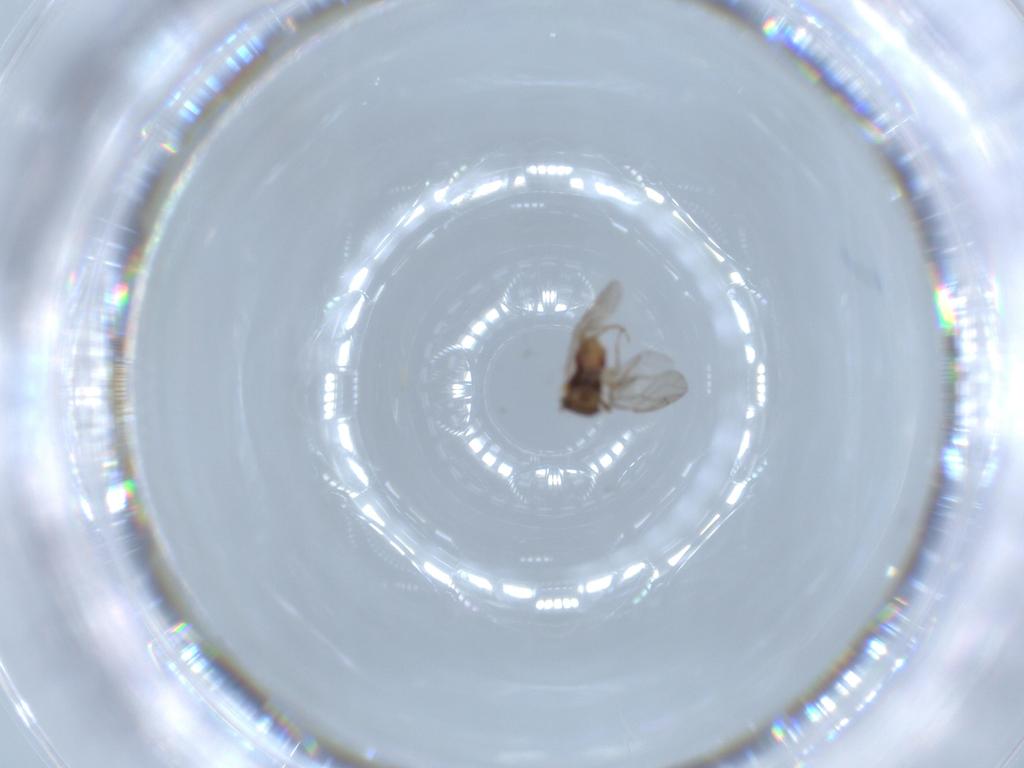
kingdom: Animalia
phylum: Arthropoda
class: Insecta
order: Psocodea
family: Peripsocidae
